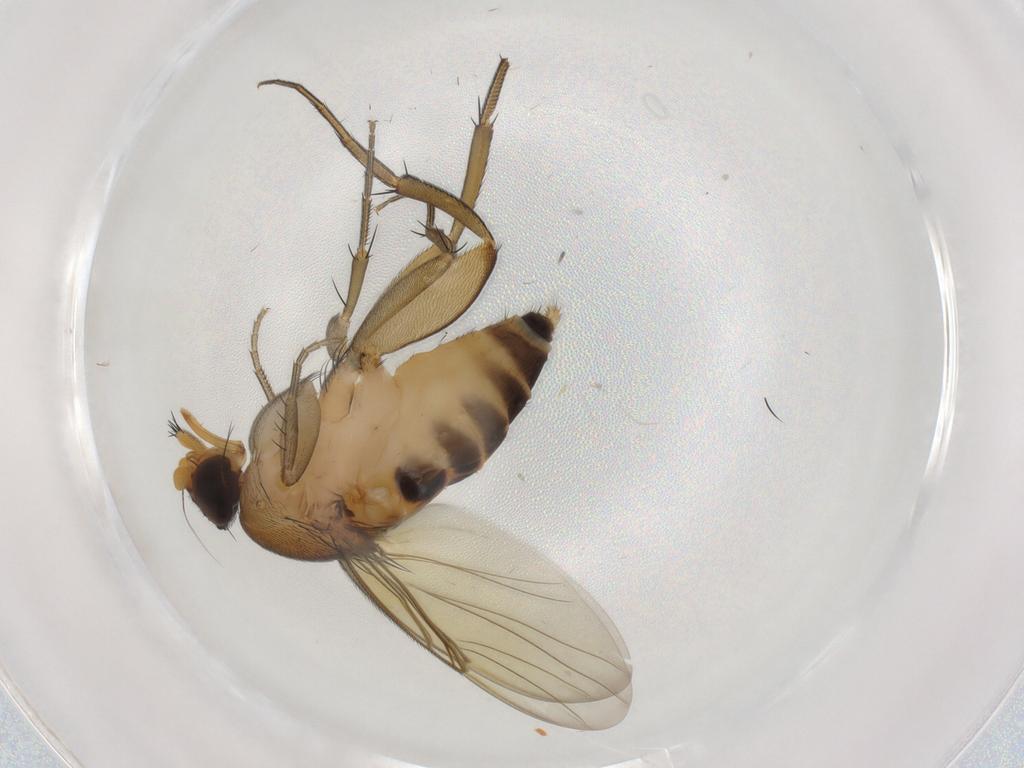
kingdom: Animalia
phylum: Arthropoda
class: Insecta
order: Diptera
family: Phoridae
